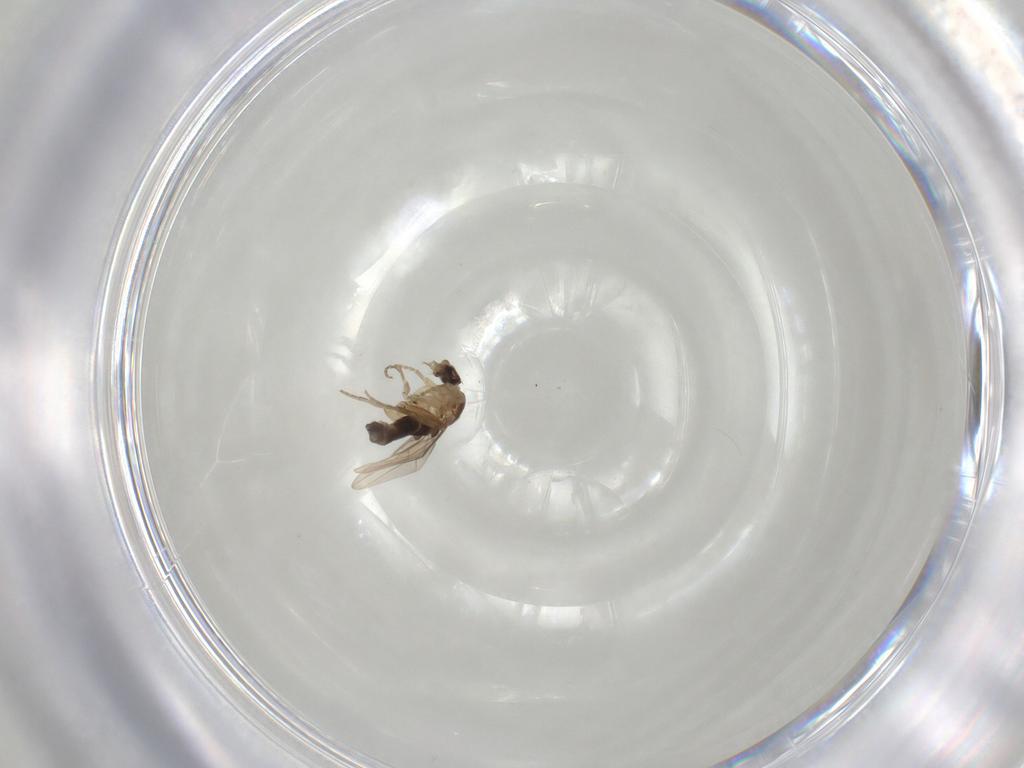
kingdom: Animalia
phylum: Arthropoda
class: Insecta
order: Diptera
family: Phoridae
